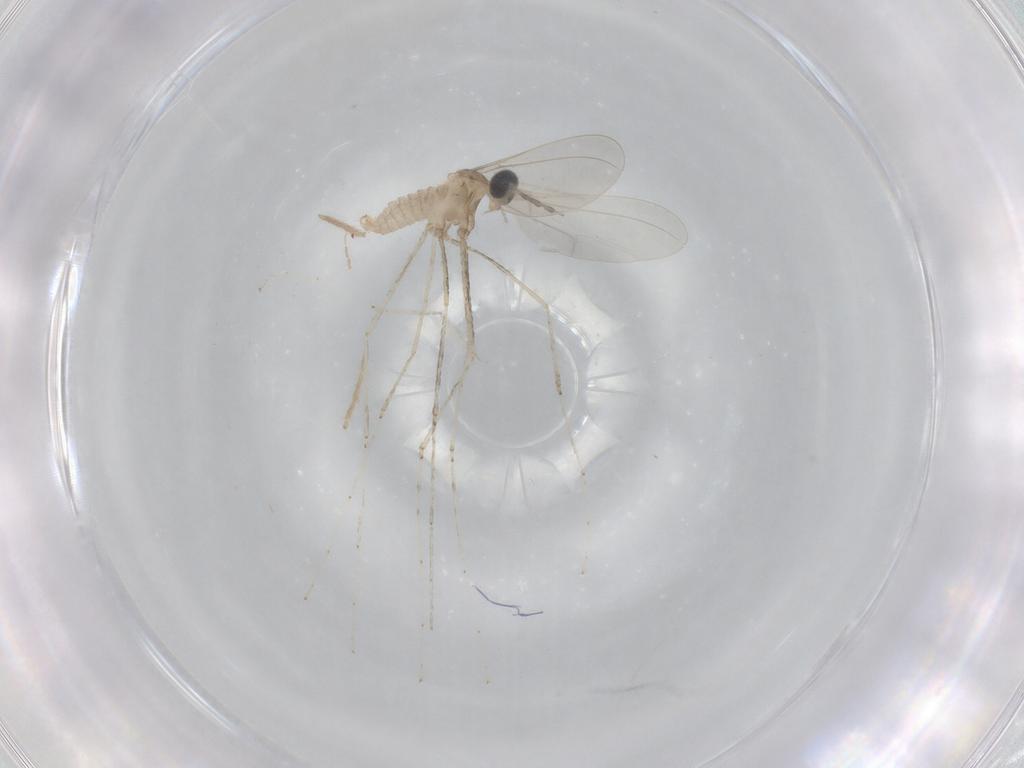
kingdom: Animalia
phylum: Arthropoda
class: Insecta
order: Diptera
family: Cecidomyiidae
